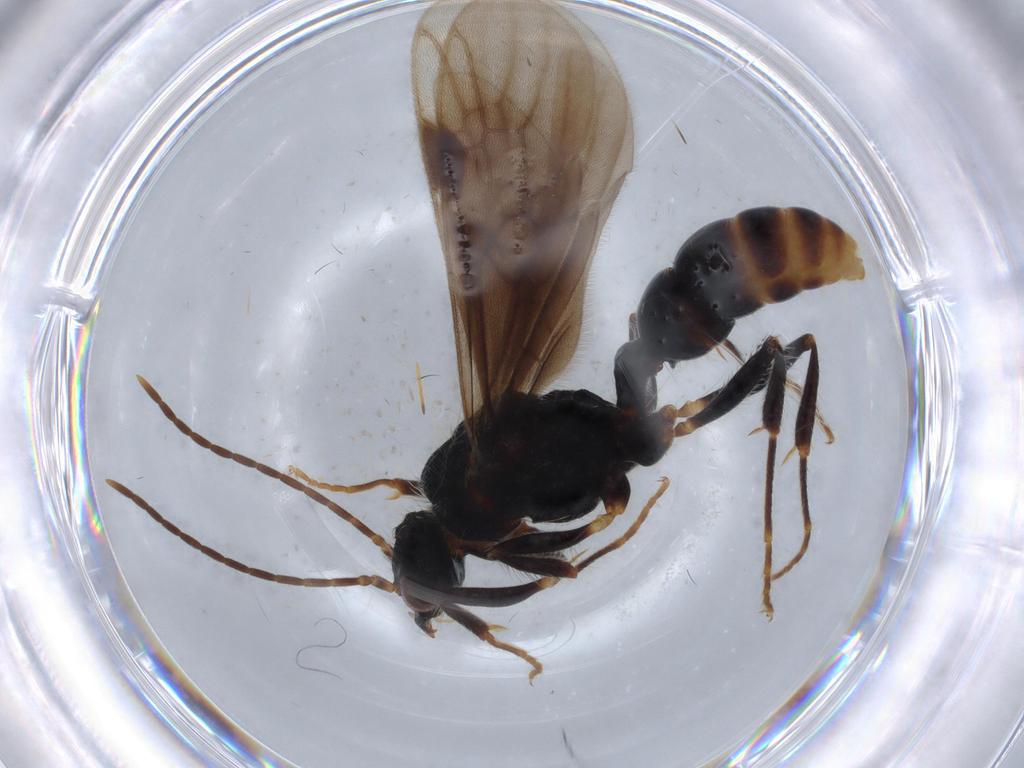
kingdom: Animalia
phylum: Arthropoda
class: Insecta
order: Hymenoptera
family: Formicidae
